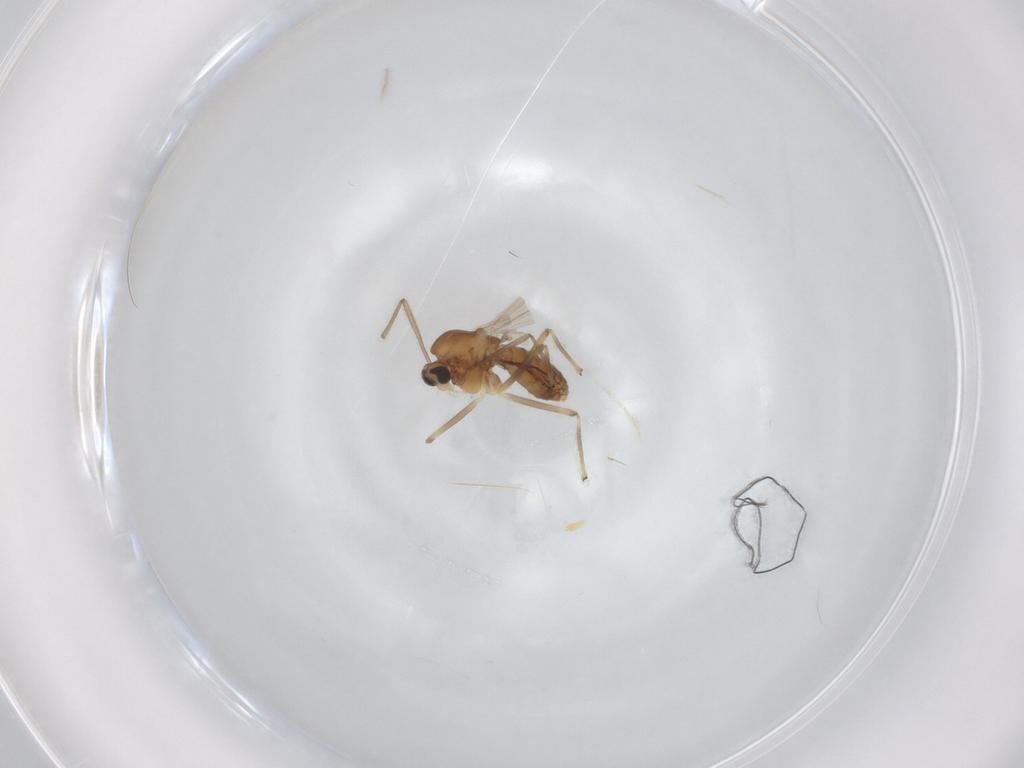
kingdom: Animalia
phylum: Arthropoda
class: Insecta
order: Diptera
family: Chironomidae
